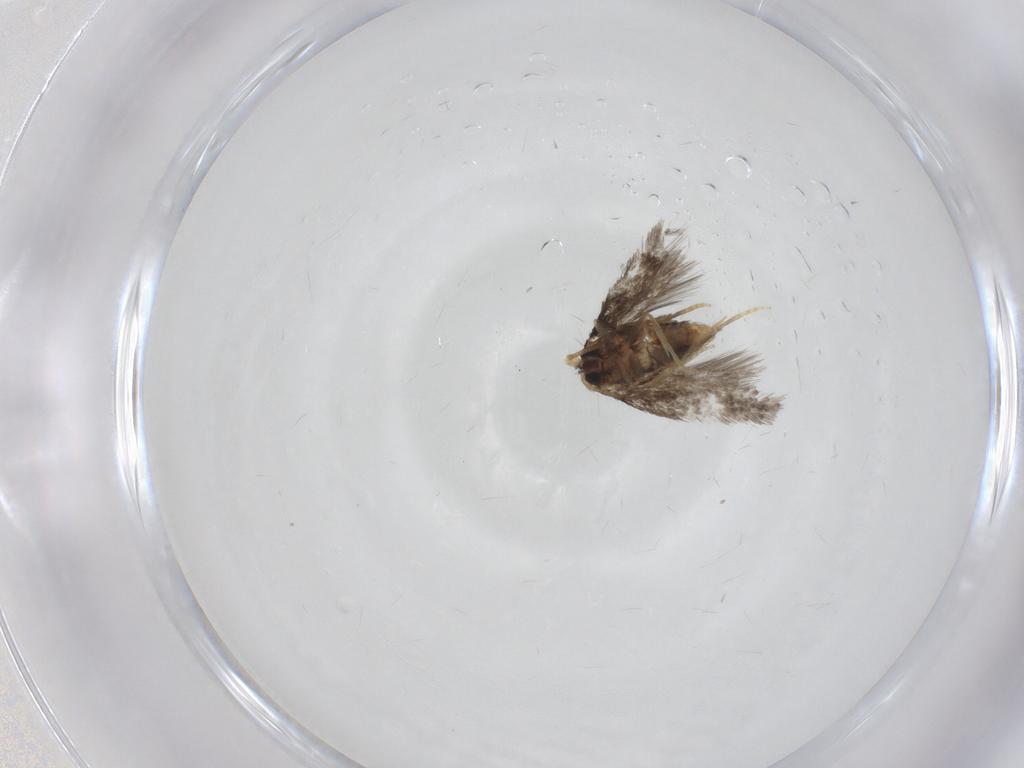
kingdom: Animalia
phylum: Arthropoda
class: Insecta
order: Lepidoptera
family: Nepticulidae
